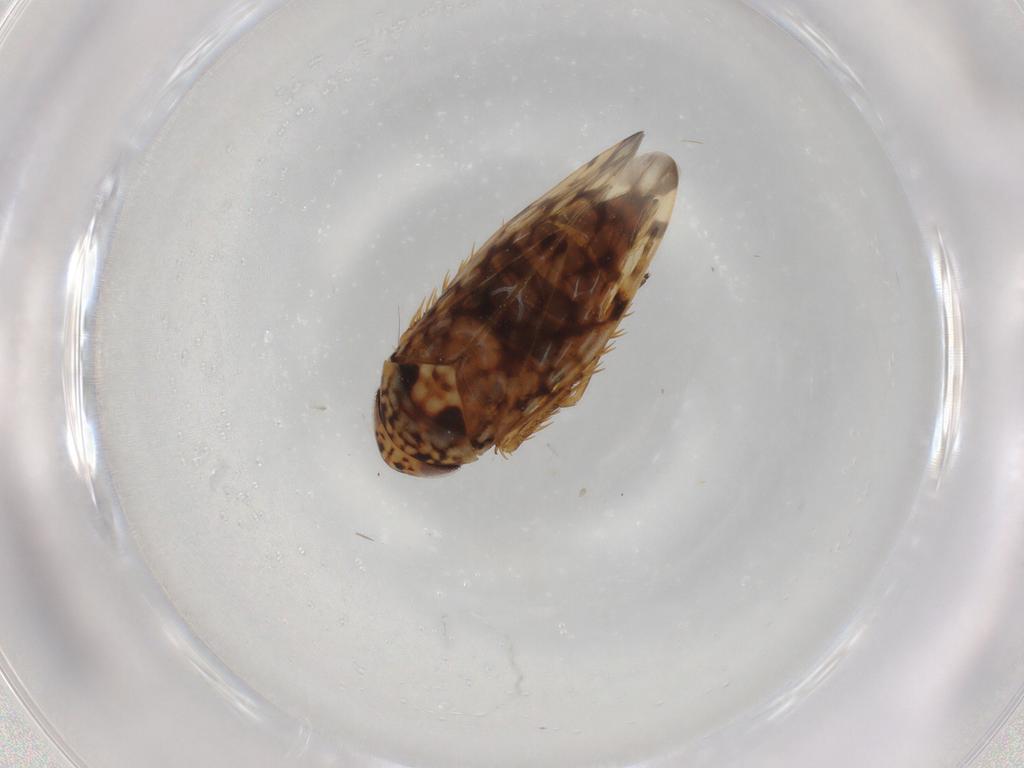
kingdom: Animalia
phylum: Arthropoda
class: Insecta
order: Hemiptera
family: Cicadellidae
